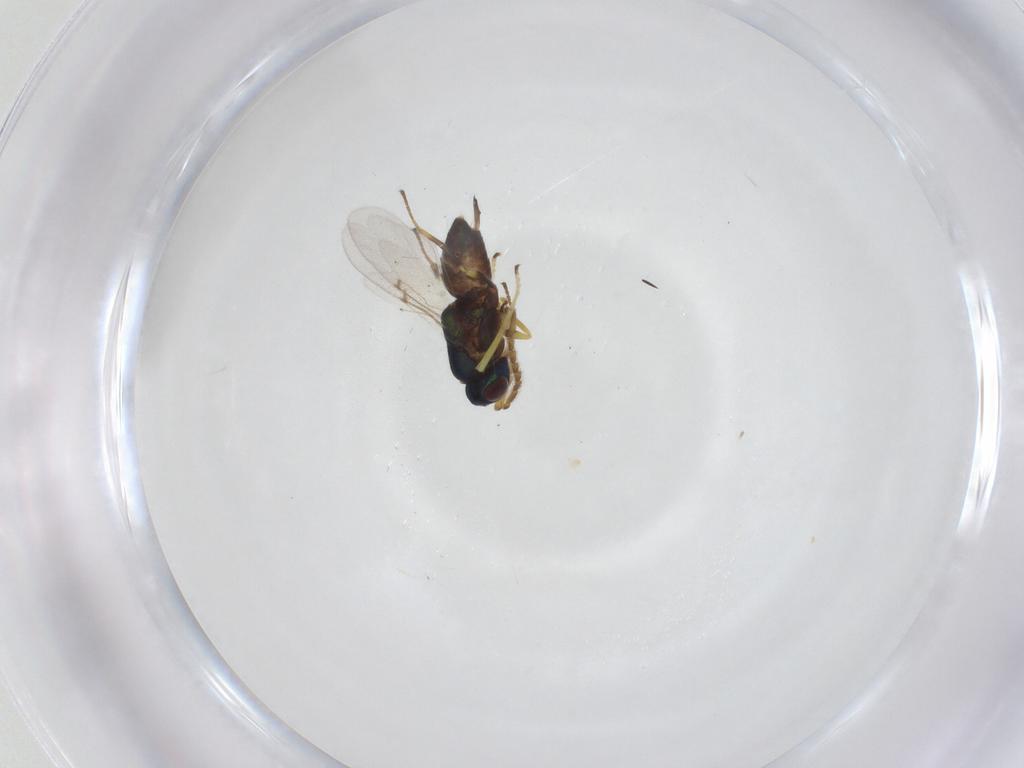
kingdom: Animalia
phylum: Arthropoda
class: Insecta
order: Hymenoptera
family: Encyrtidae
